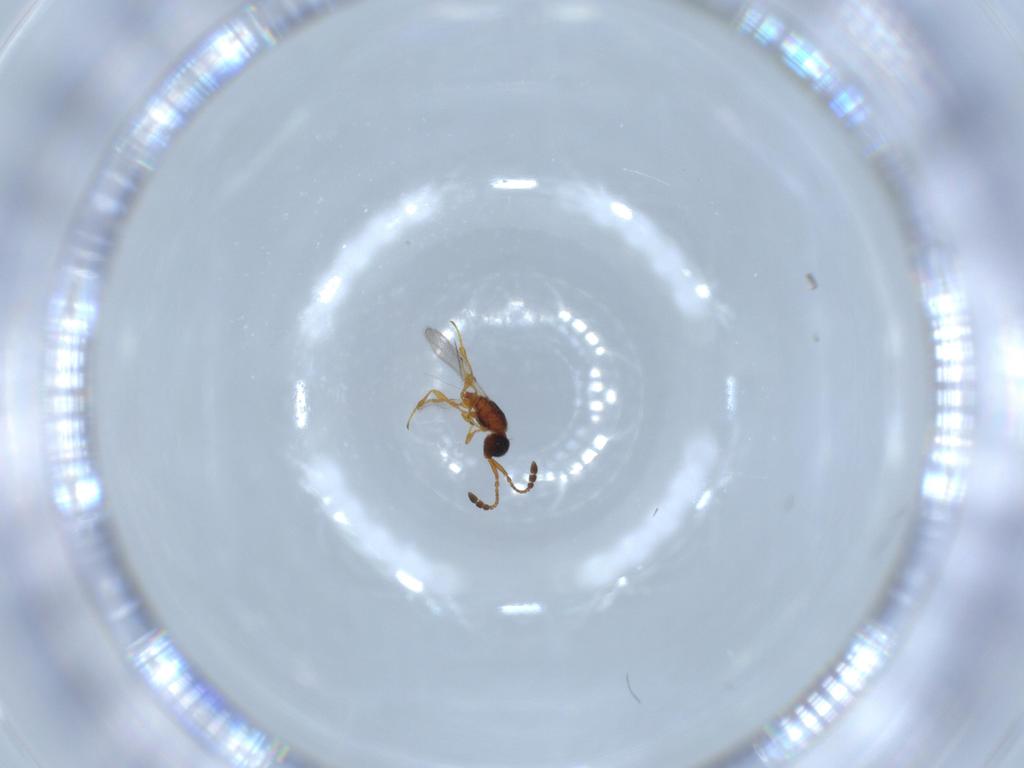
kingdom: Animalia
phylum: Arthropoda
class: Insecta
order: Hymenoptera
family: Diapriidae
